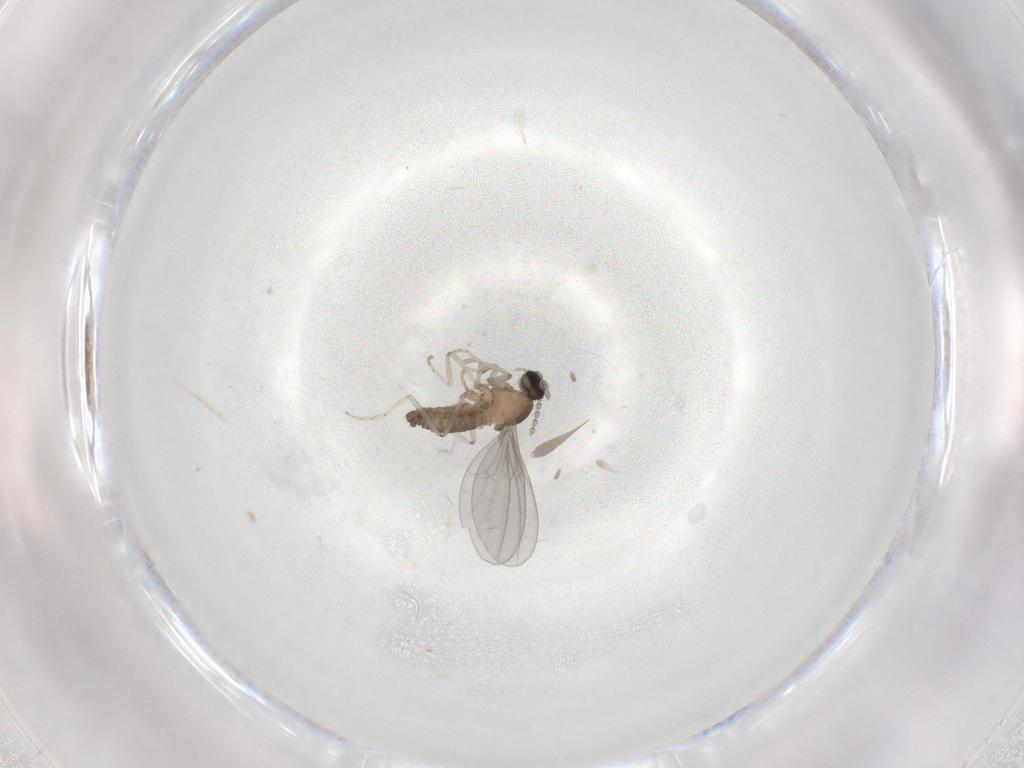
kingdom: Animalia
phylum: Arthropoda
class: Insecta
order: Diptera
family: Cecidomyiidae
